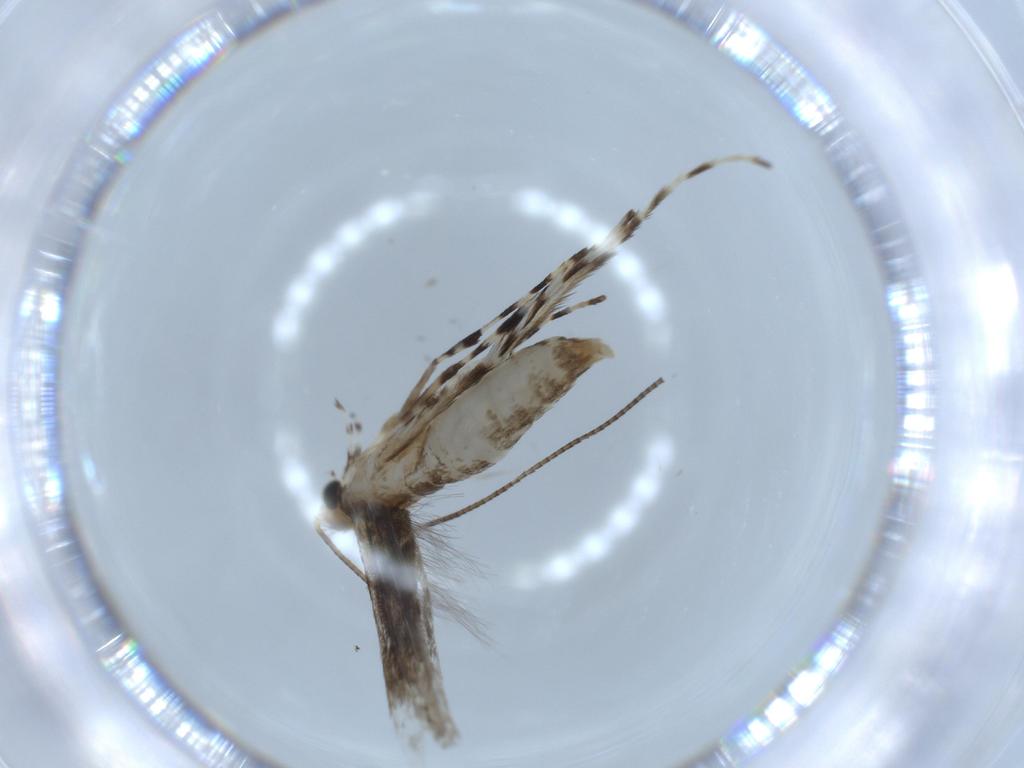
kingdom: Animalia
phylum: Arthropoda
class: Insecta
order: Lepidoptera
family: Gracillariidae
